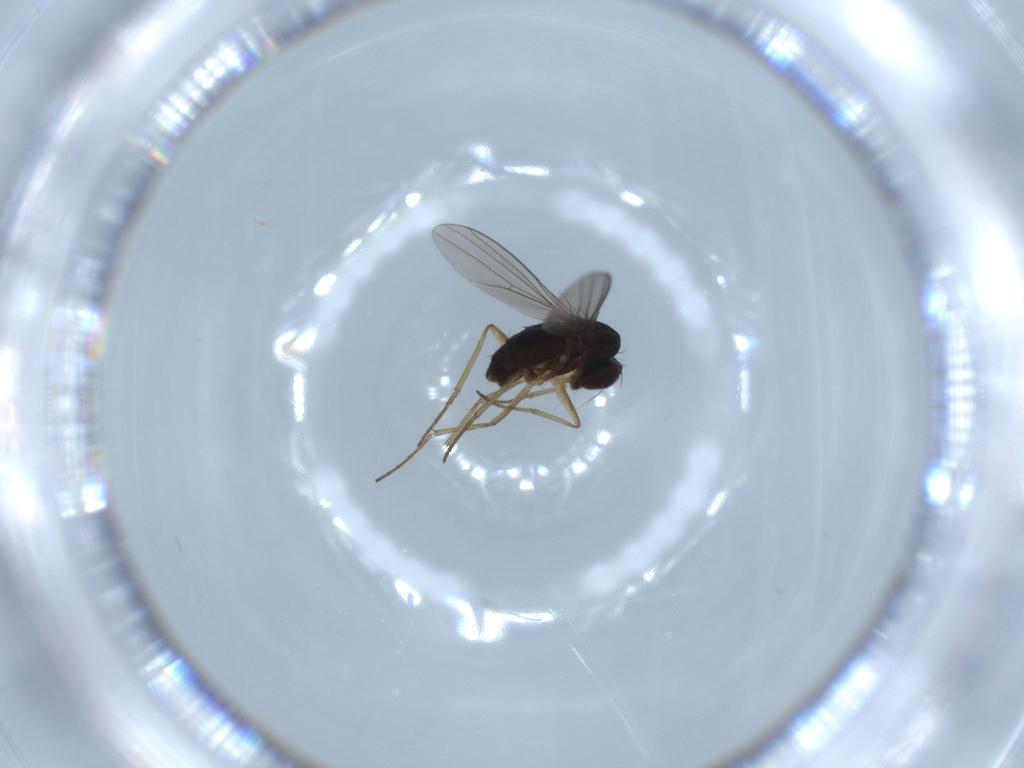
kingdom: Animalia
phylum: Arthropoda
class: Insecta
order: Diptera
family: Dolichopodidae
